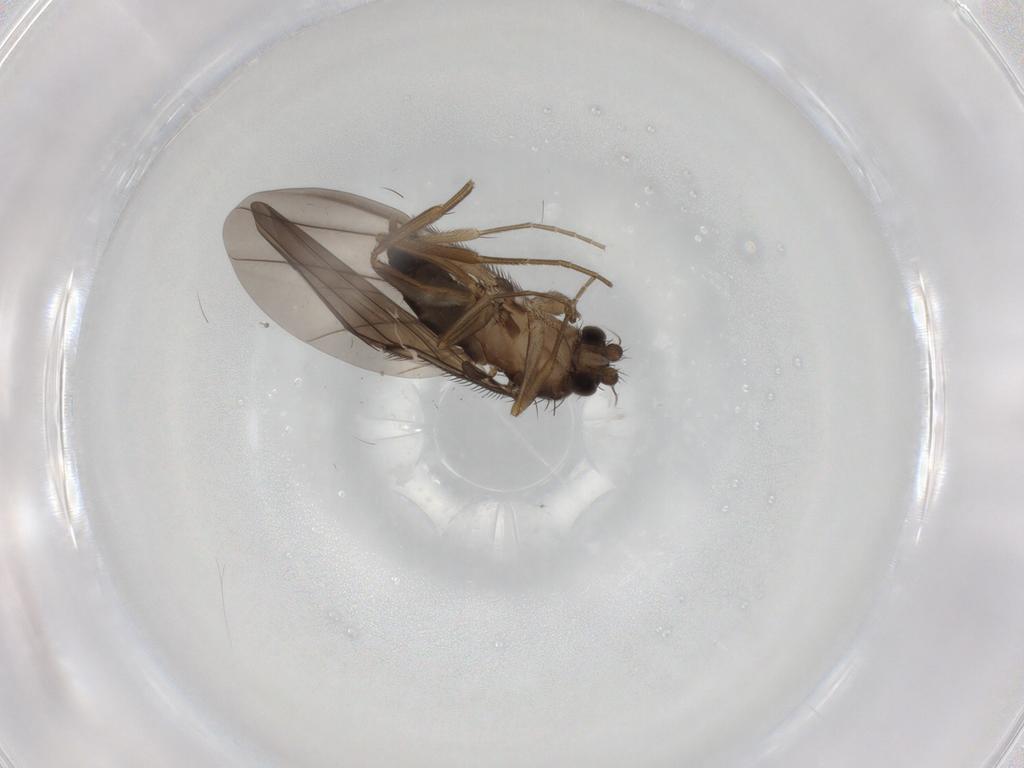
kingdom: Animalia
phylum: Arthropoda
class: Insecta
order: Diptera
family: Phoridae
